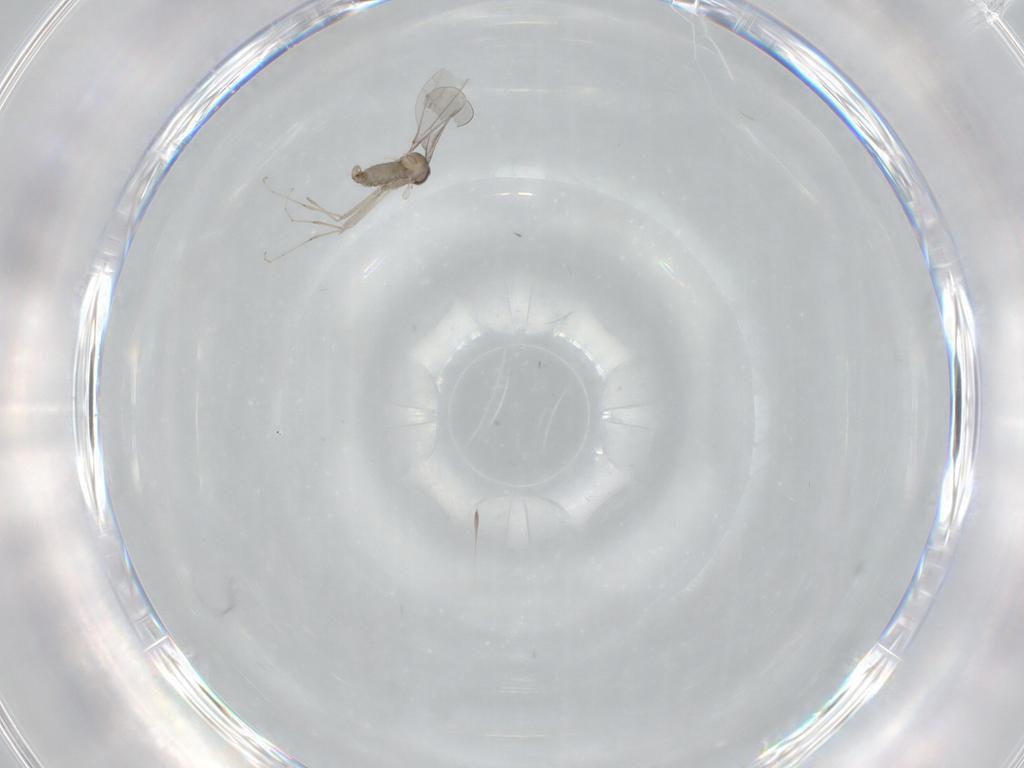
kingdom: Animalia
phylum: Arthropoda
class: Insecta
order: Diptera
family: Cecidomyiidae
